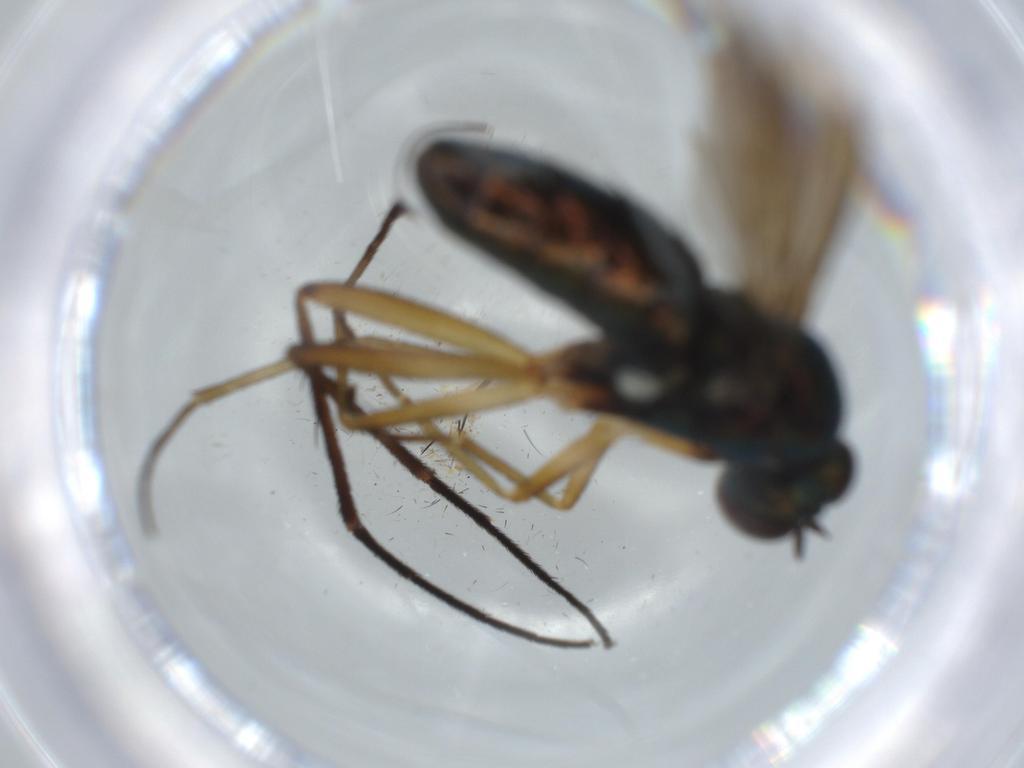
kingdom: Animalia
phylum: Arthropoda
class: Insecta
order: Diptera
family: Dolichopodidae
